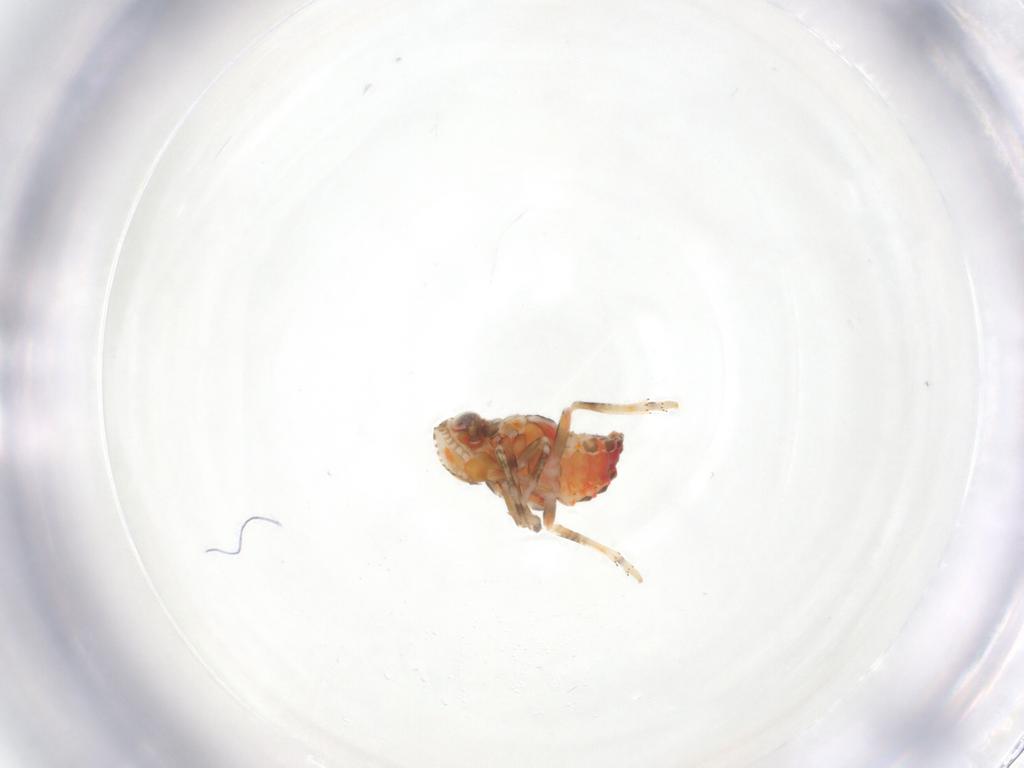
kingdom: Animalia
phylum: Arthropoda
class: Insecta
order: Hemiptera
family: Tropiduchidae
